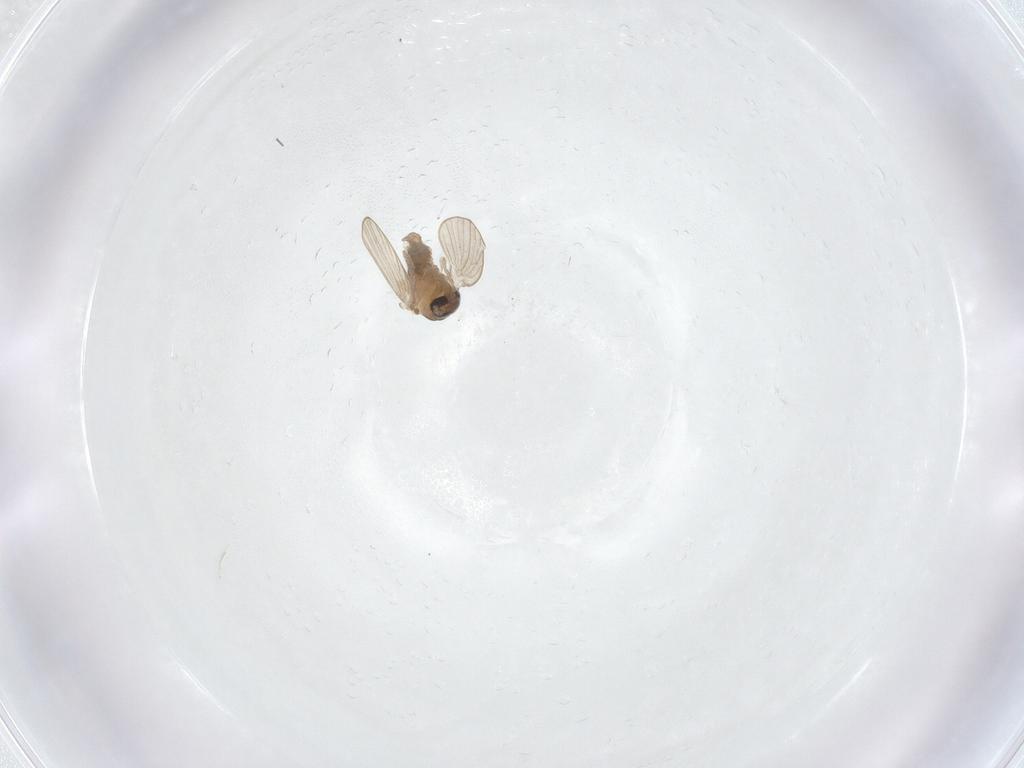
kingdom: Animalia
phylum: Arthropoda
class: Insecta
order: Diptera
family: Psychodidae
